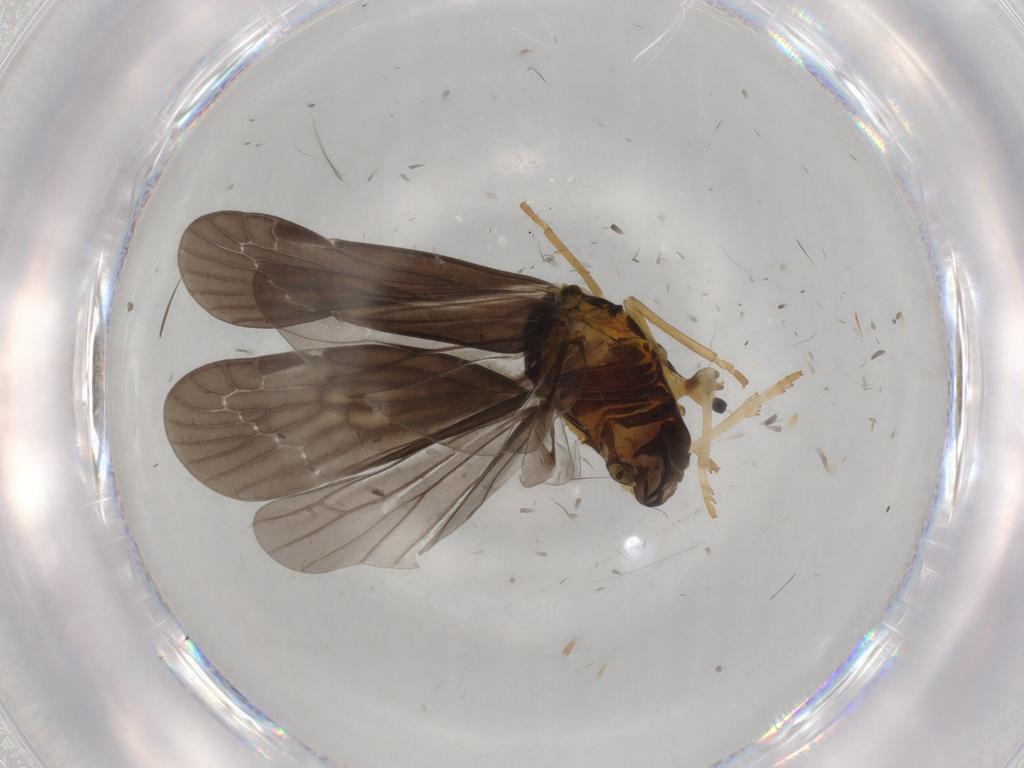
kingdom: Animalia
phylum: Arthropoda
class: Insecta
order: Hemiptera
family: Derbidae
